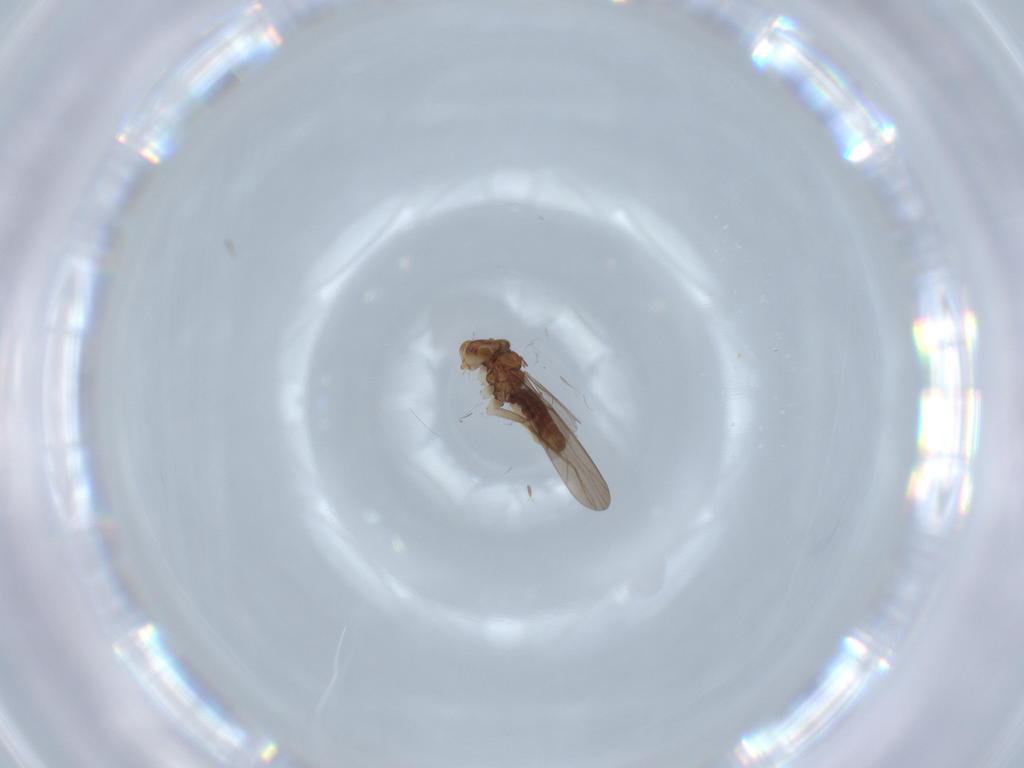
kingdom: Animalia
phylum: Arthropoda
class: Insecta
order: Psocodea
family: Lepidopsocidae
